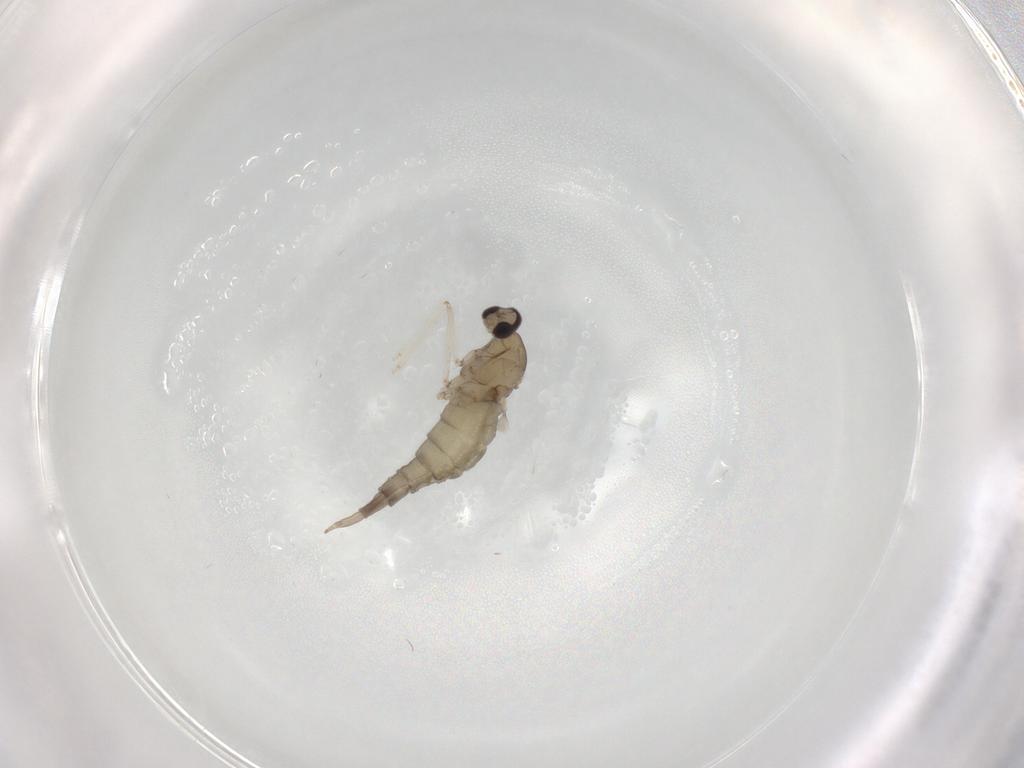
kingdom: Animalia
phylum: Arthropoda
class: Insecta
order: Diptera
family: Cecidomyiidae
